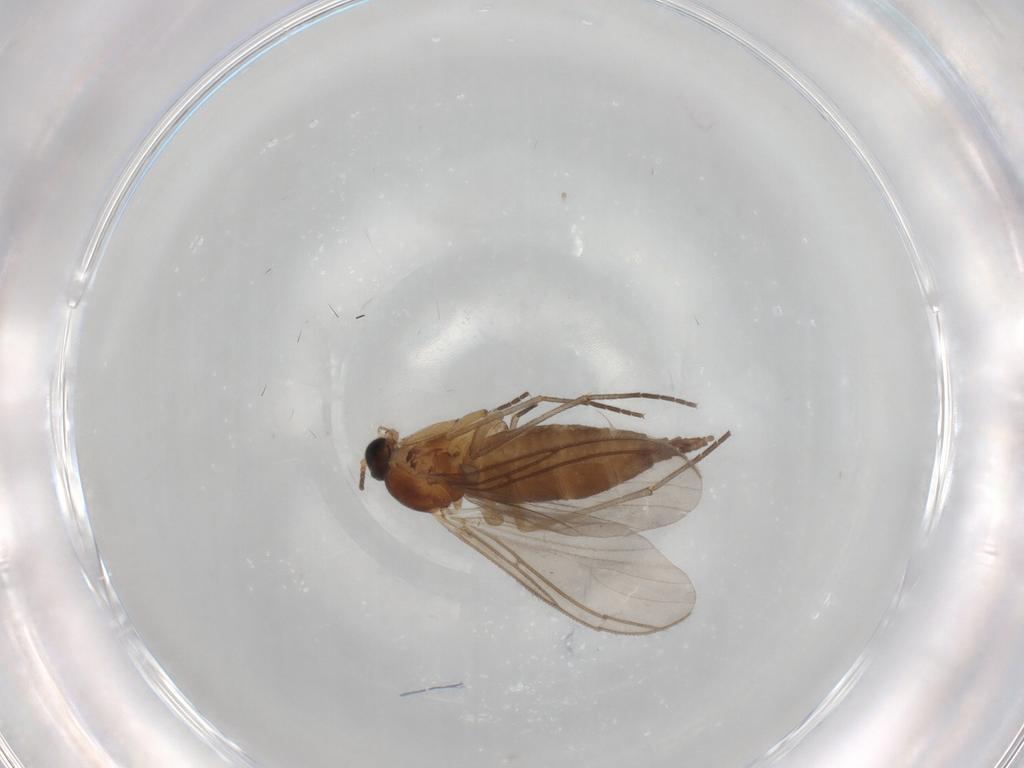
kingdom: Animalia
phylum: Arthropoda
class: Insecta
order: Diptera
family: Sciaridae
